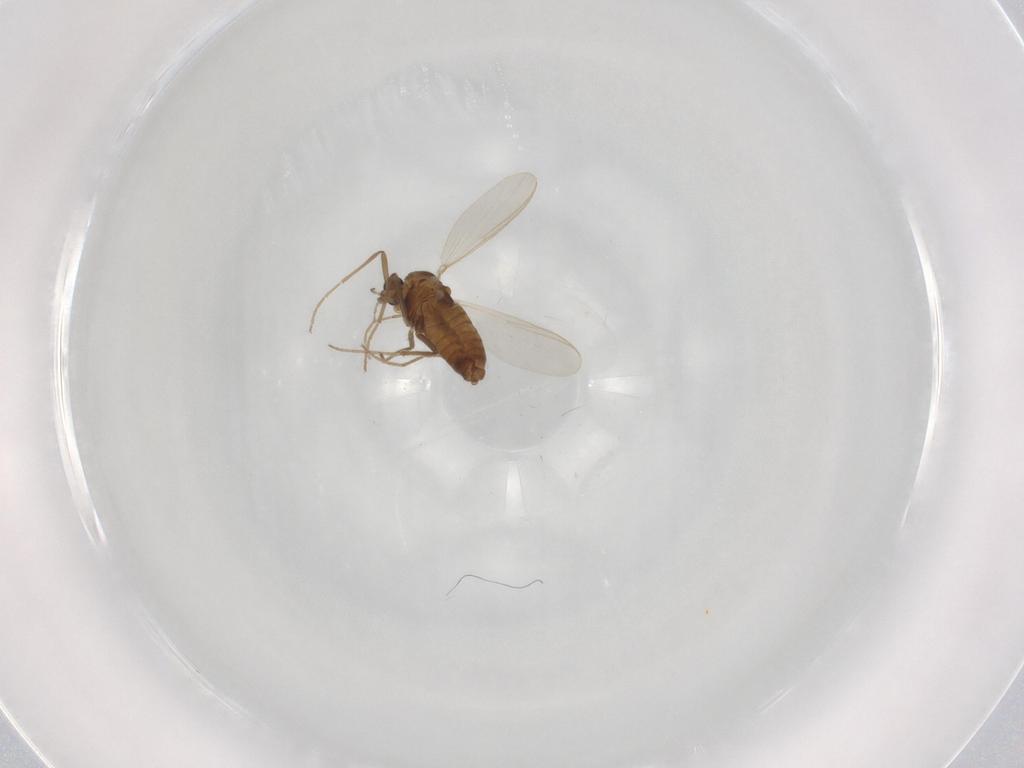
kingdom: Animalia
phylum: Arthropoda
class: Insecta
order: Diptera
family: Chironomidae
